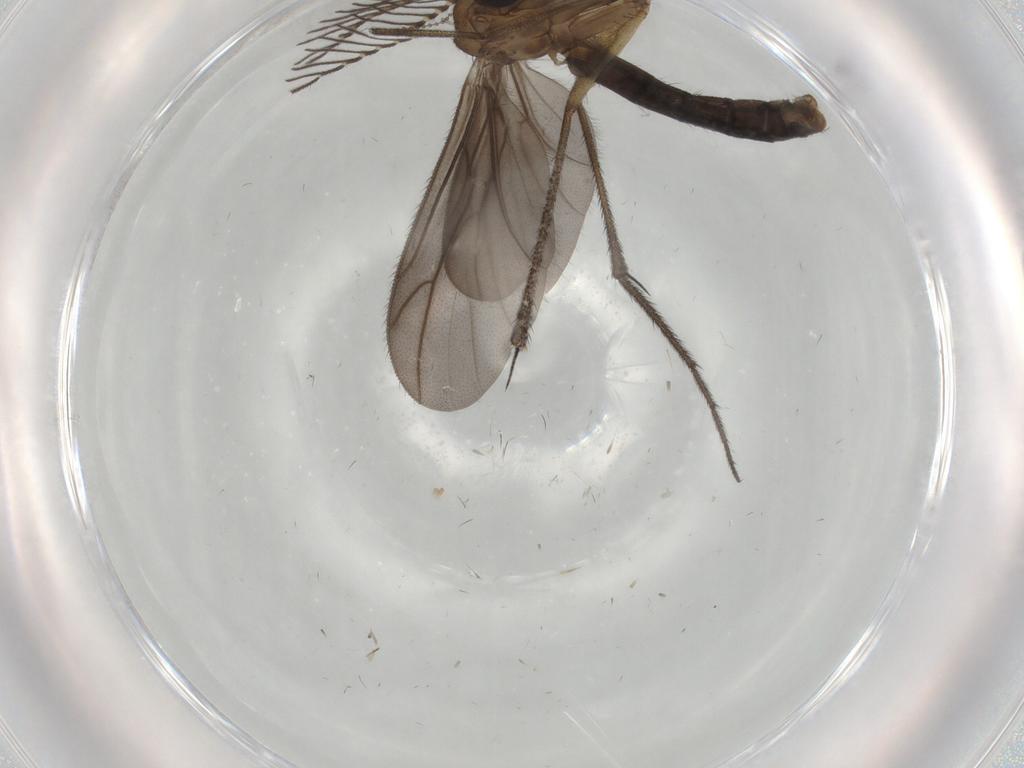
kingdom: Animalia
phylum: Arthropoda
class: Insecta
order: Diptera
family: Ditomyiidae
